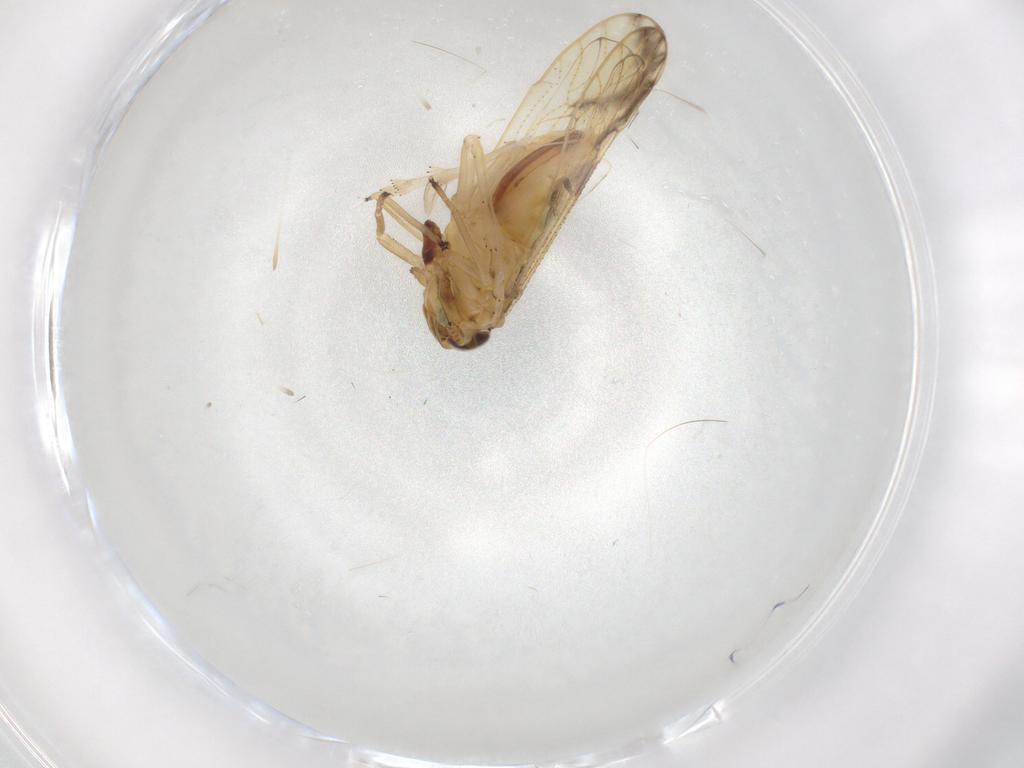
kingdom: Animalia
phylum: Arthropoda
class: Insecta
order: Hemiptera
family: Delphacidae
